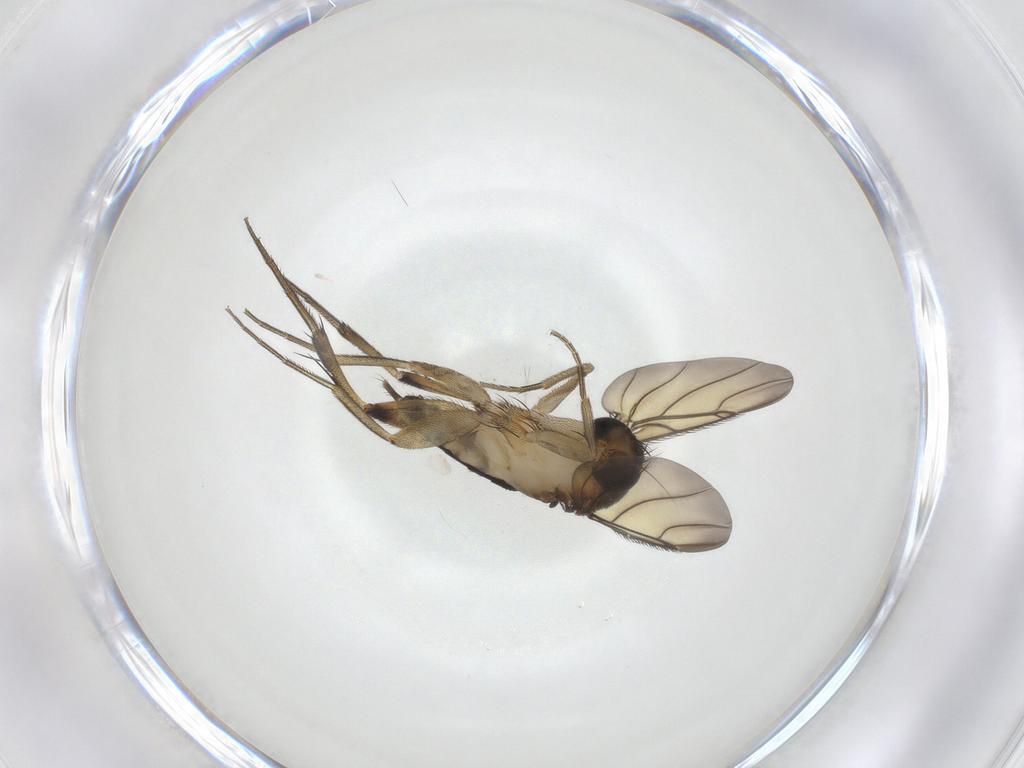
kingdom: Animalia
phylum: Arthropoda
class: Insecta
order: Diptera
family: Phoridae
